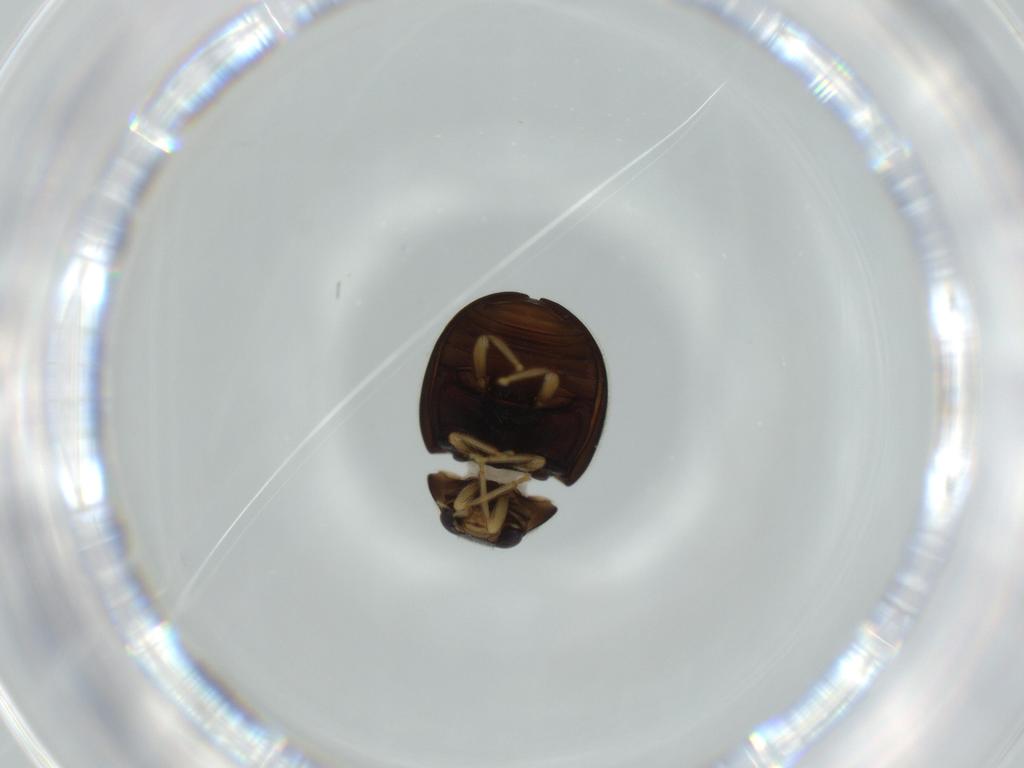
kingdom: Animalia
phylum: Arthropoda
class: Insecta
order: Coleoptera
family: Coccinellidae
